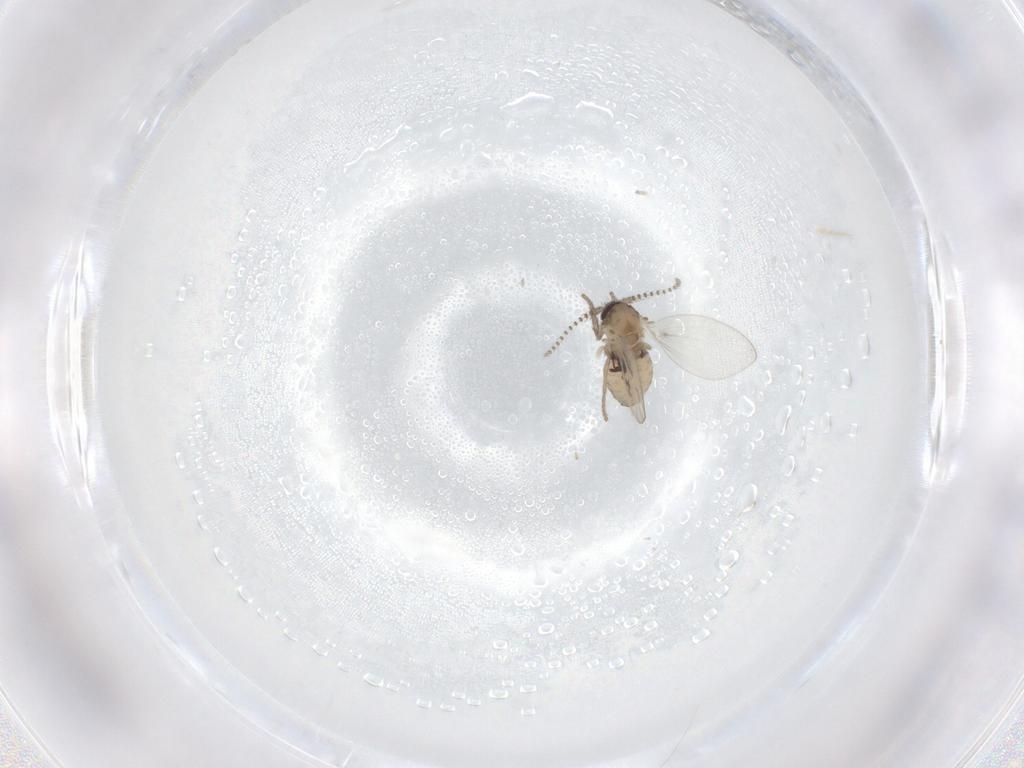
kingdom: Animalia
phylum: Arthropoda
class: Insecta
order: Diptera
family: Psychodidae
